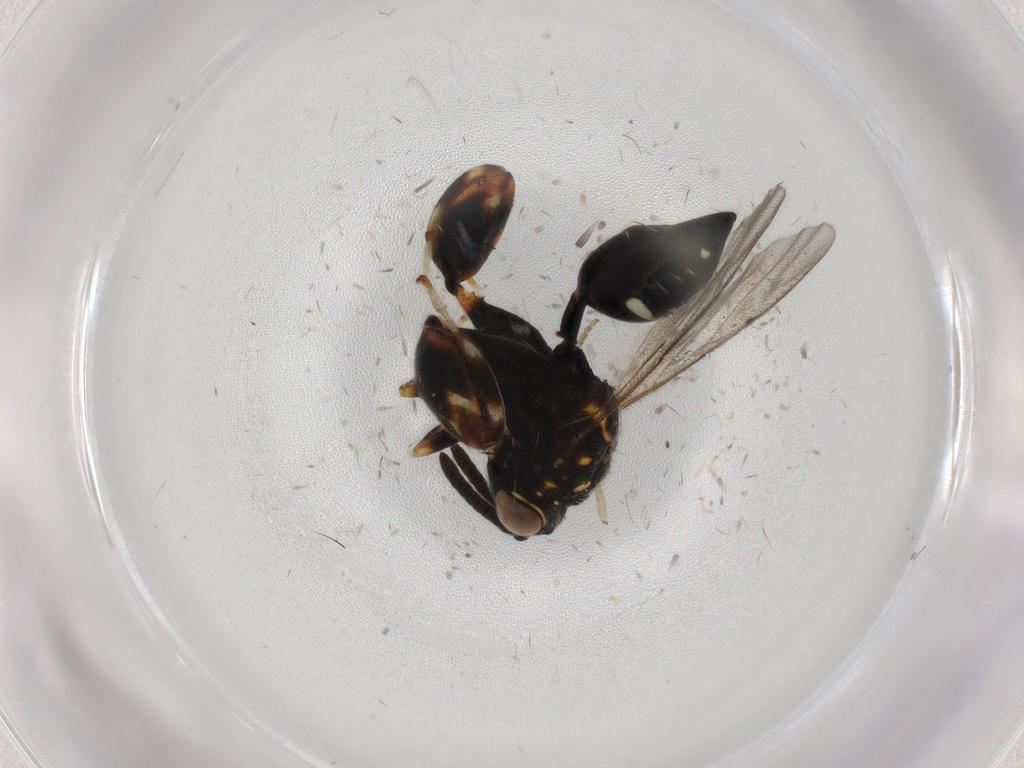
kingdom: Animalia
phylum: Arthropoda
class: Insecta
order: Hymenoptera
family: Chalcididae
